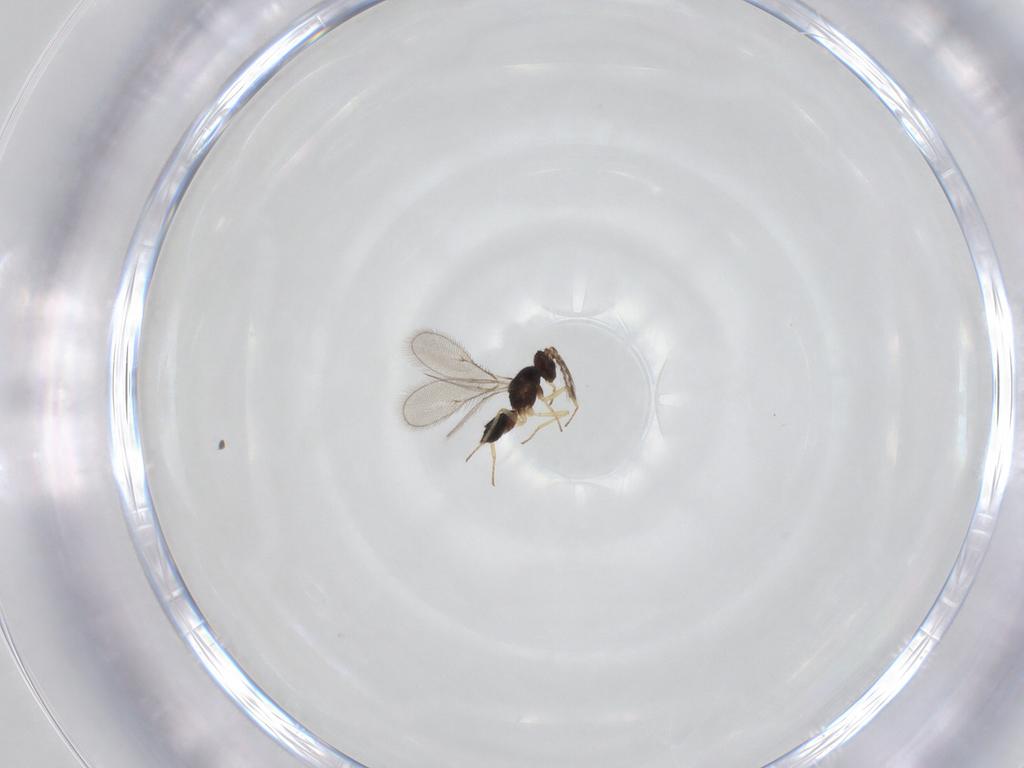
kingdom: Animalia
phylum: Arthropoda
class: Insecta
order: Hymenoptera
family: Eulophidae
